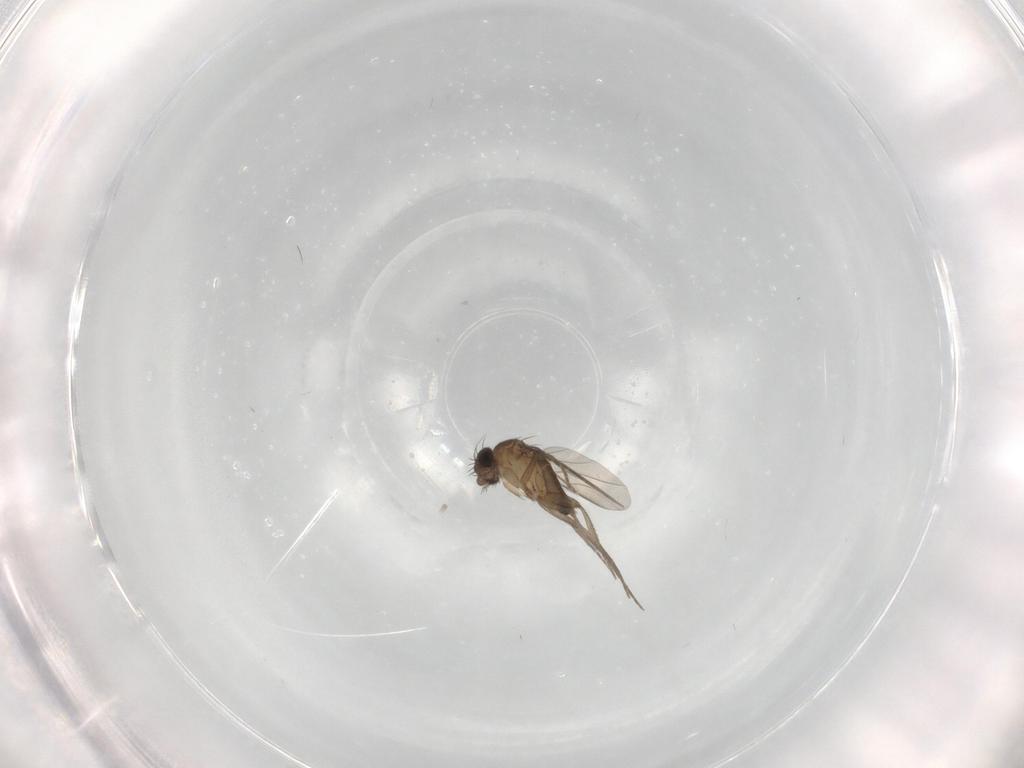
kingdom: Animalia
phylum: Arthropoda
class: Insecta
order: Diptera
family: Phoridae
